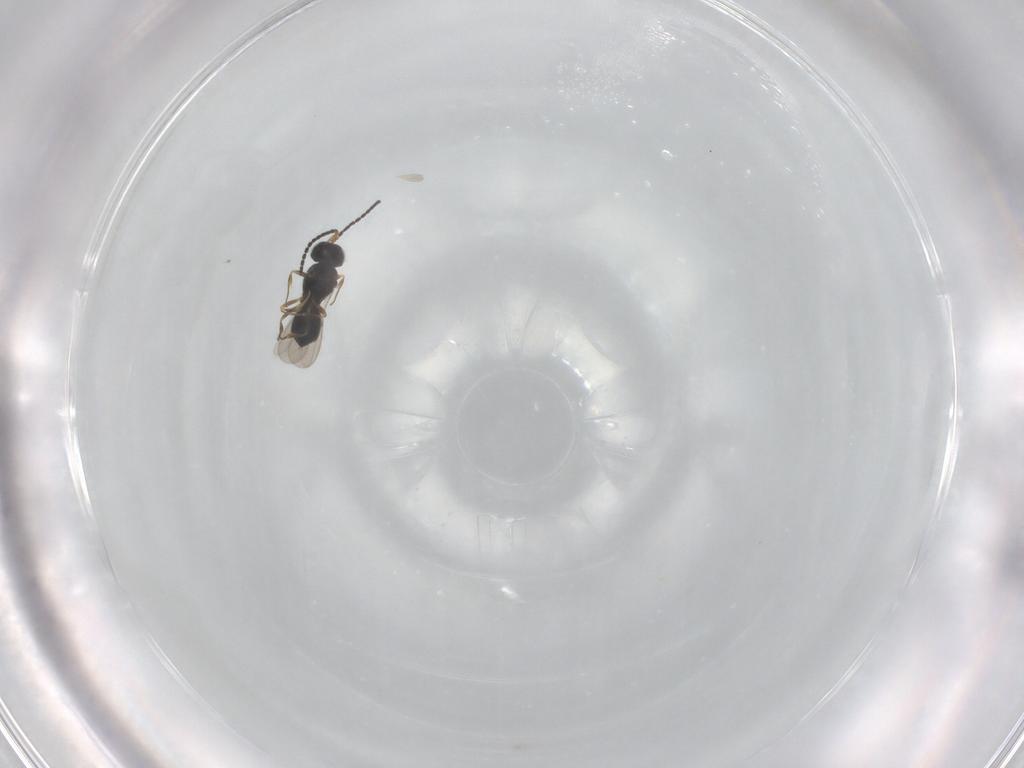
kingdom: Animalia
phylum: Arthropoda
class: Insecta
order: Hymenoptera
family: Scelionidae
